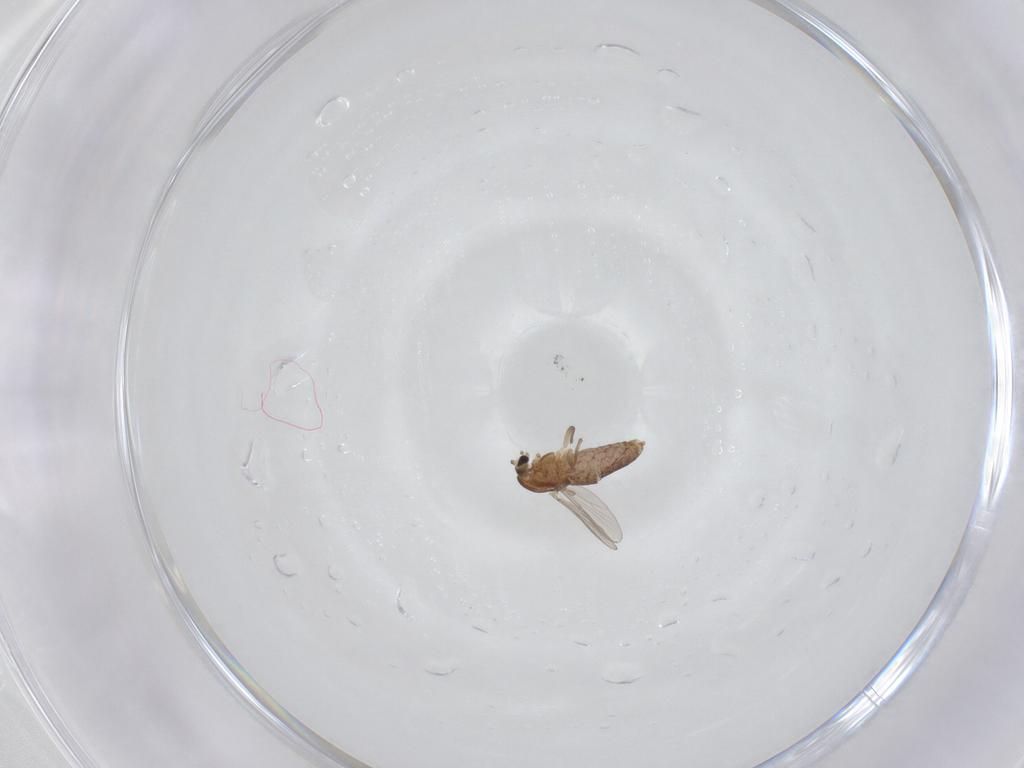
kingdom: Animalia
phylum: Arthropoda
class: Insecta
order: Diptera
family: Chironomidae
